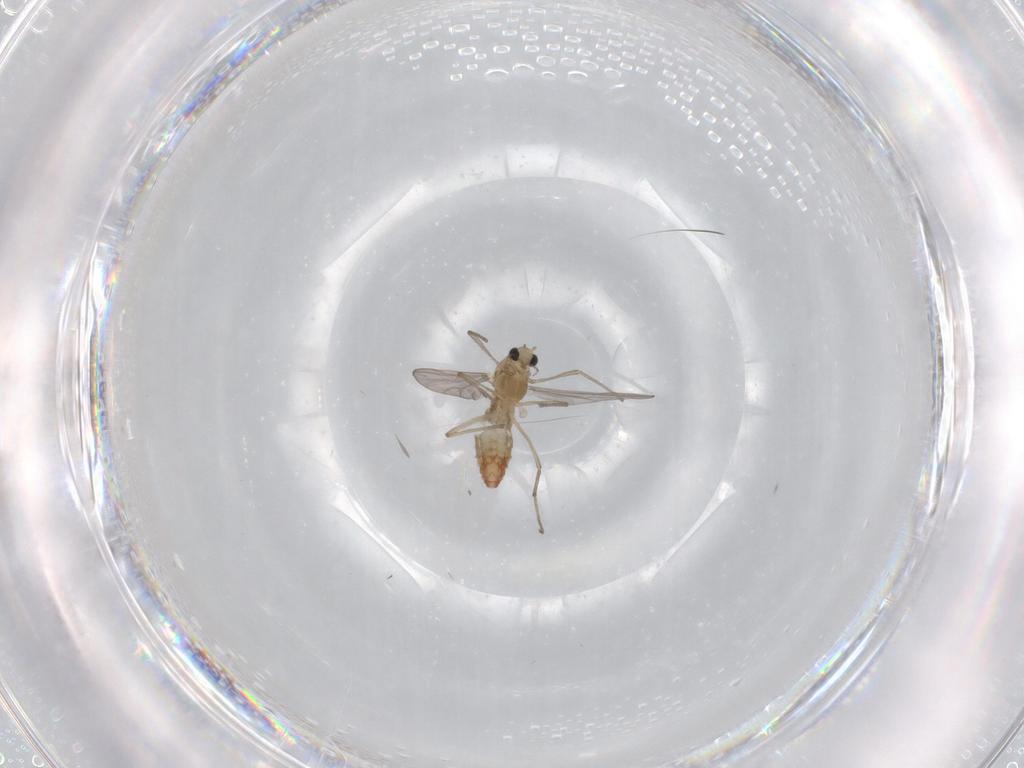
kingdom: Animalia
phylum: Arthropoda
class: Insecta
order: Diptera
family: Chironomidae
